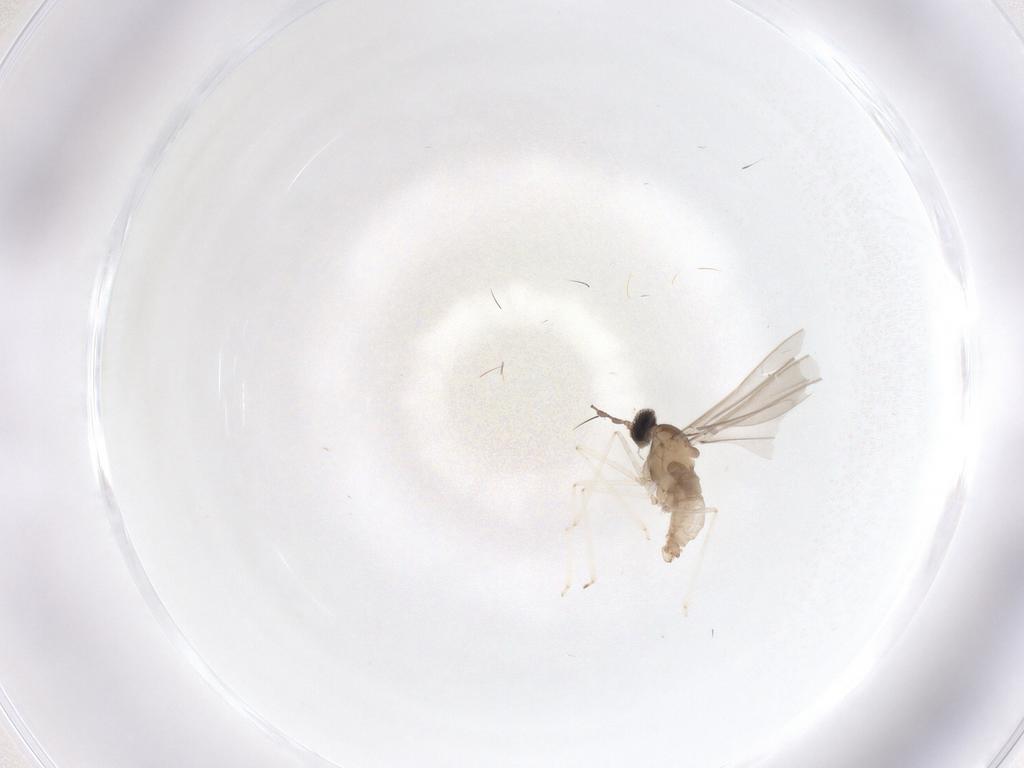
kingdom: Animalia
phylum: Arthropoda
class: Insecta
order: Diptera
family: Cecidomyiidae
